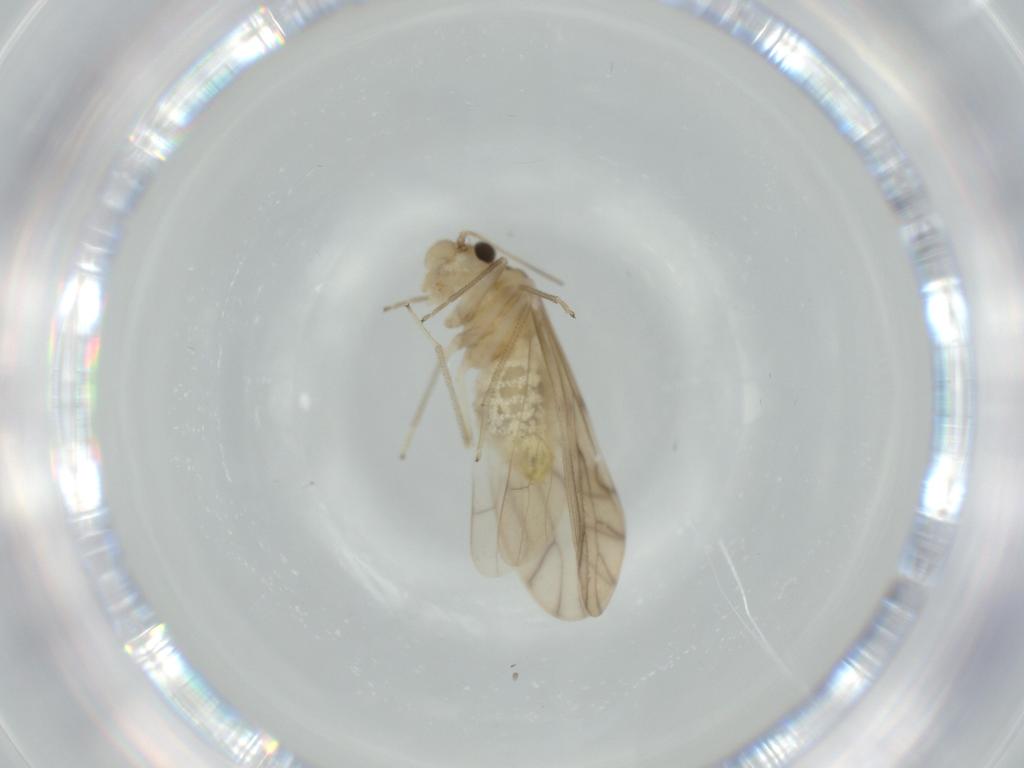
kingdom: Animalia
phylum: Arthropoda
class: Insecta
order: Psocodea
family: Caeciliusidae
